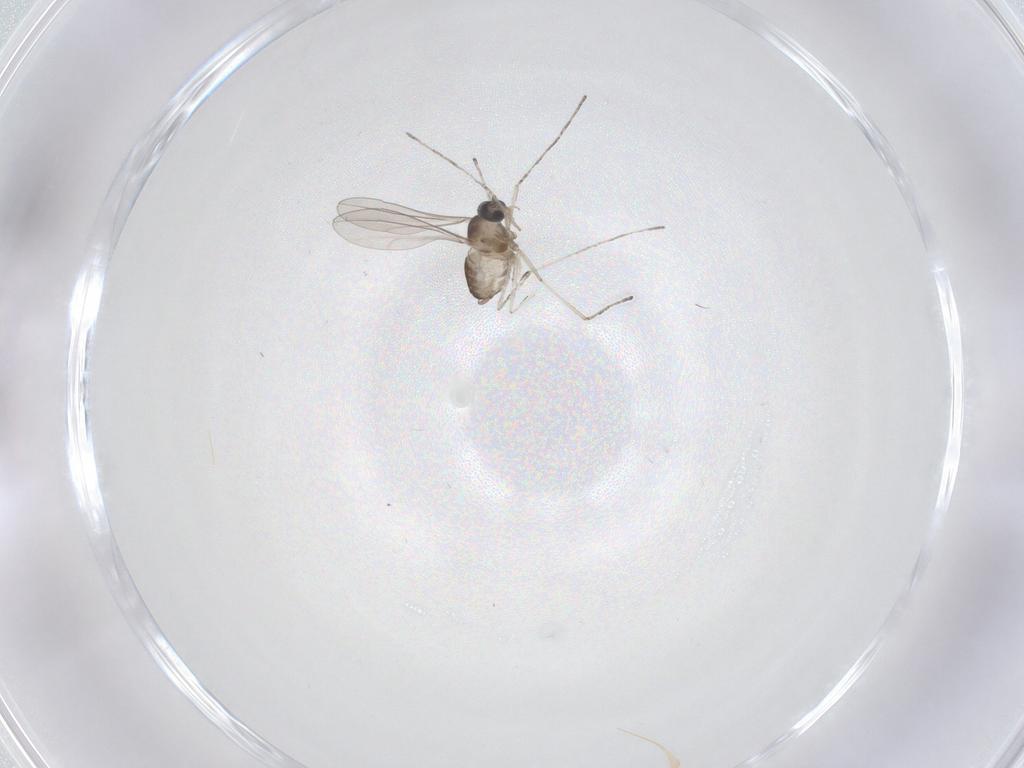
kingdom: Animalia
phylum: Arthropoda
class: Insecta
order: Diptera
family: Cecidomyiidae
